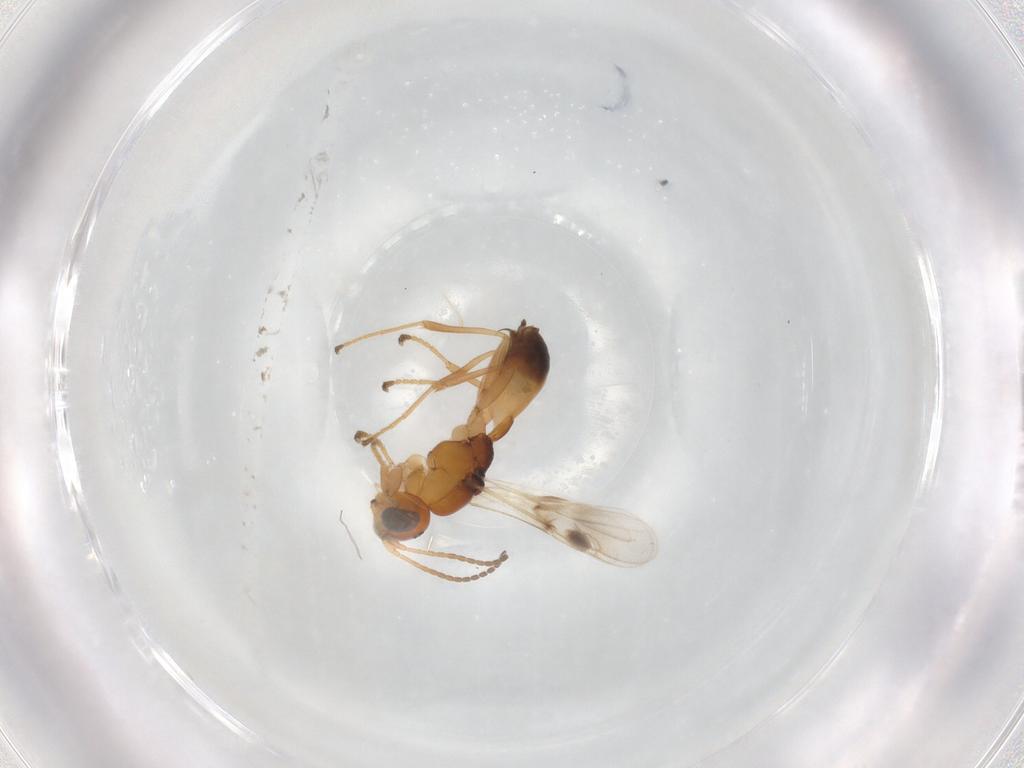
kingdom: Animalia
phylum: Arthropoda
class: Insecta
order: Hymenoptera
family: Braconidae
